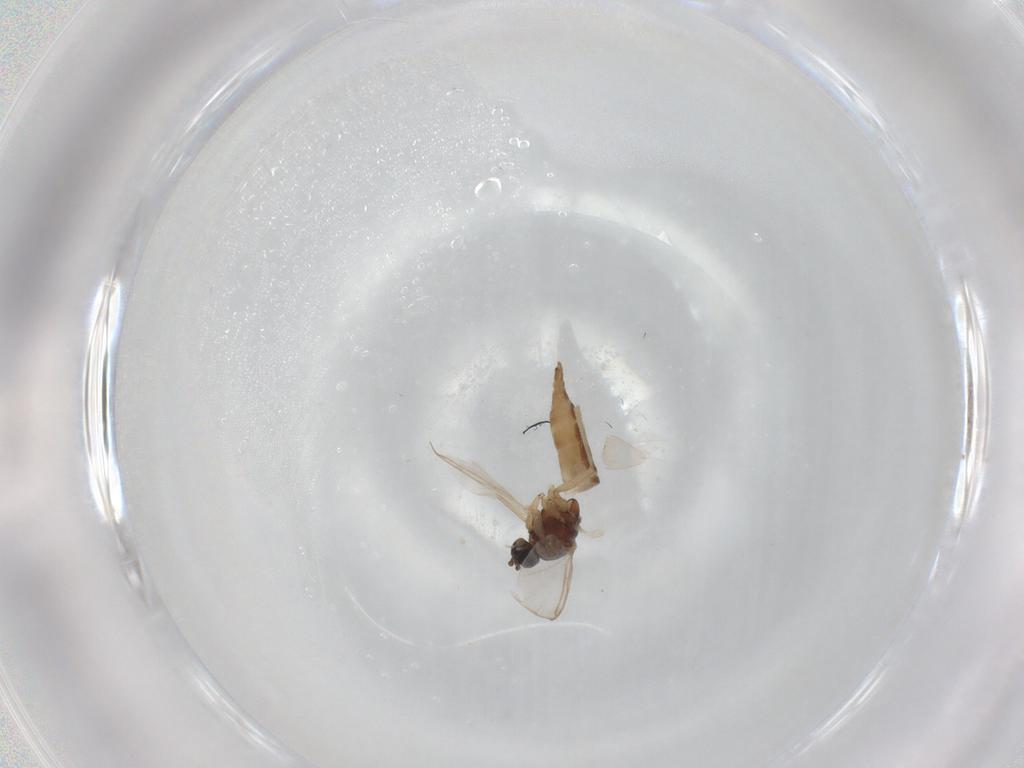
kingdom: Animalia
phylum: Arthropoda
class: Insecta
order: Diptera
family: Sciaridae
